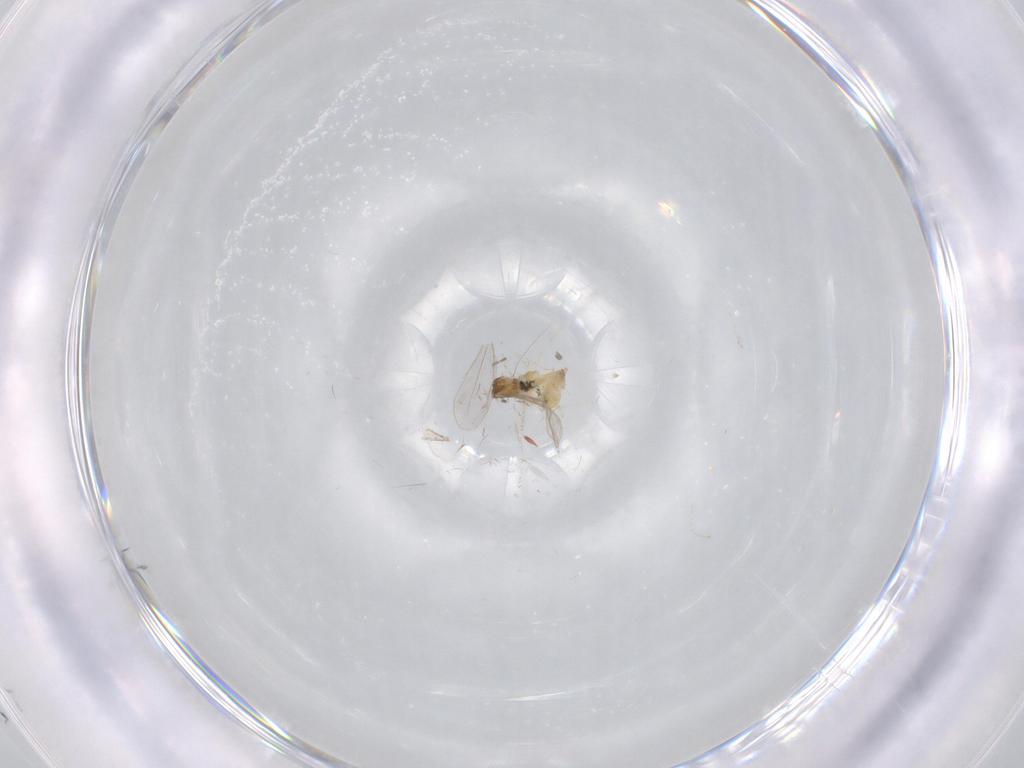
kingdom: Animalia
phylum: Arthropoda
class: Insecta
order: Diptera
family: Cecidomyiidae
